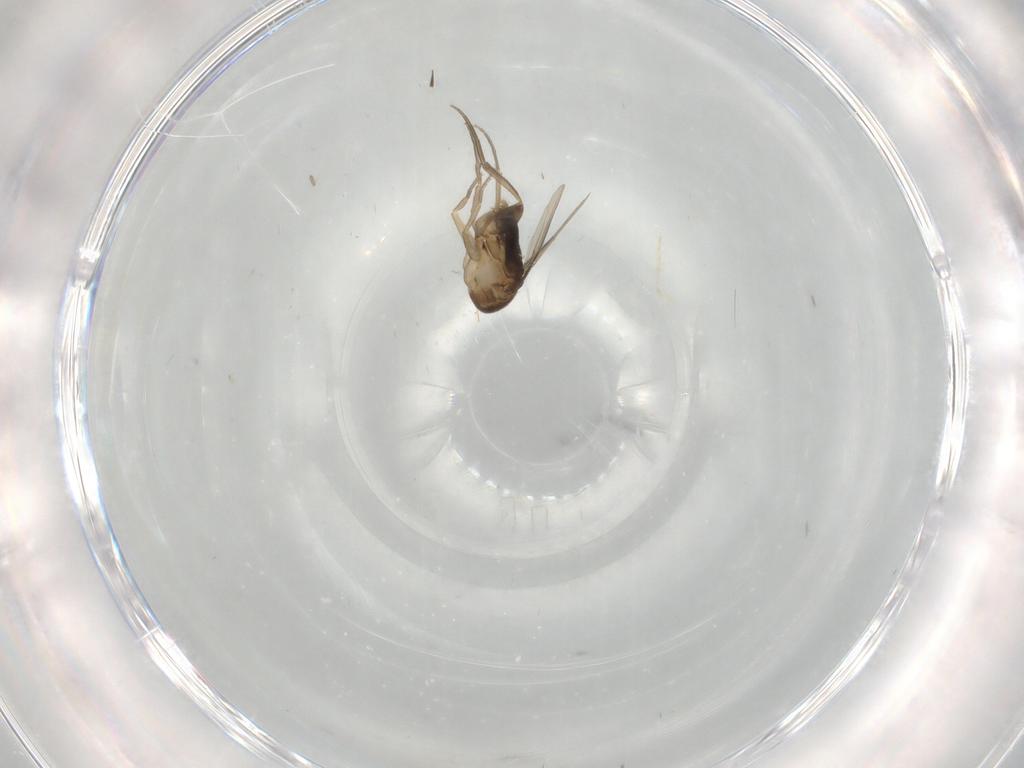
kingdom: Animalia
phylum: Arthropoda
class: Insecta
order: Diptera
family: Phoridae
